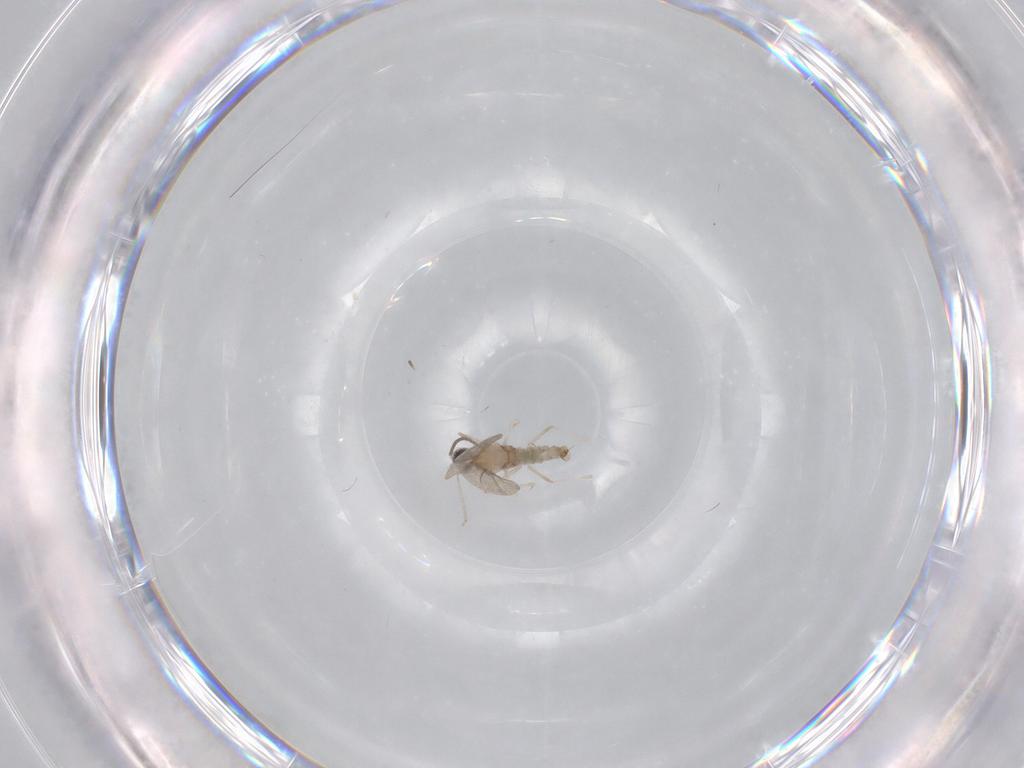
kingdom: Animalia
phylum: Arthropoda
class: Insecta
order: Diptera
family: Cecidomyiidae
